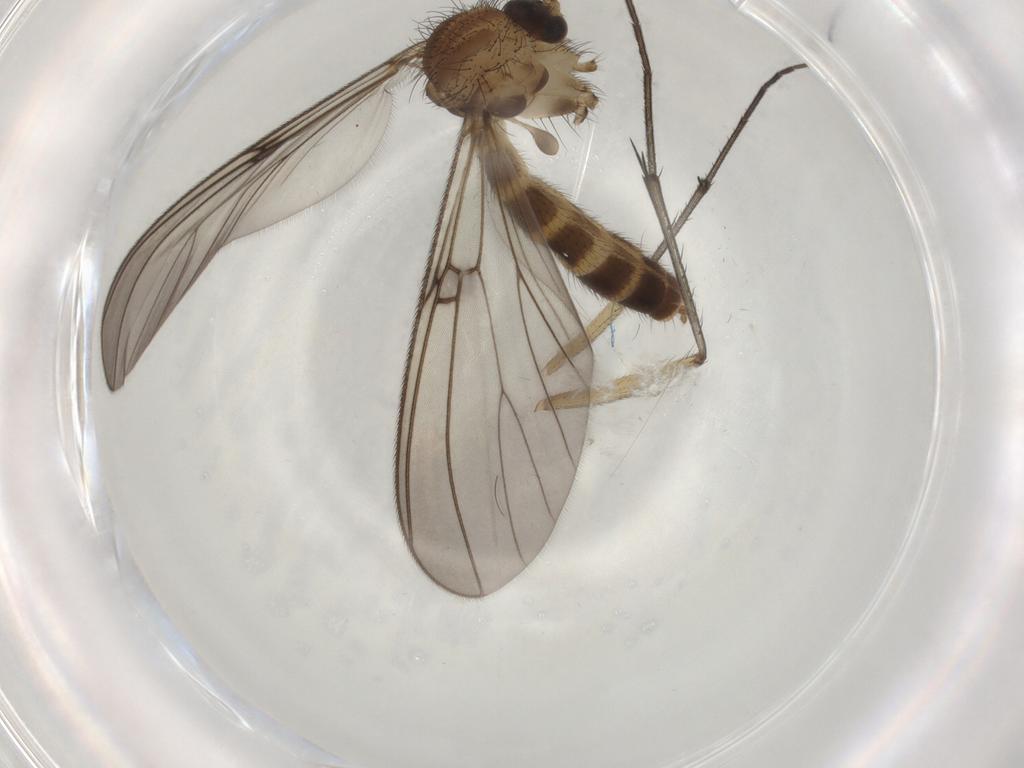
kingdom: Animalia
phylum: Arthropoda
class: Insecta
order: Diptera
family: Mycetophilidae
